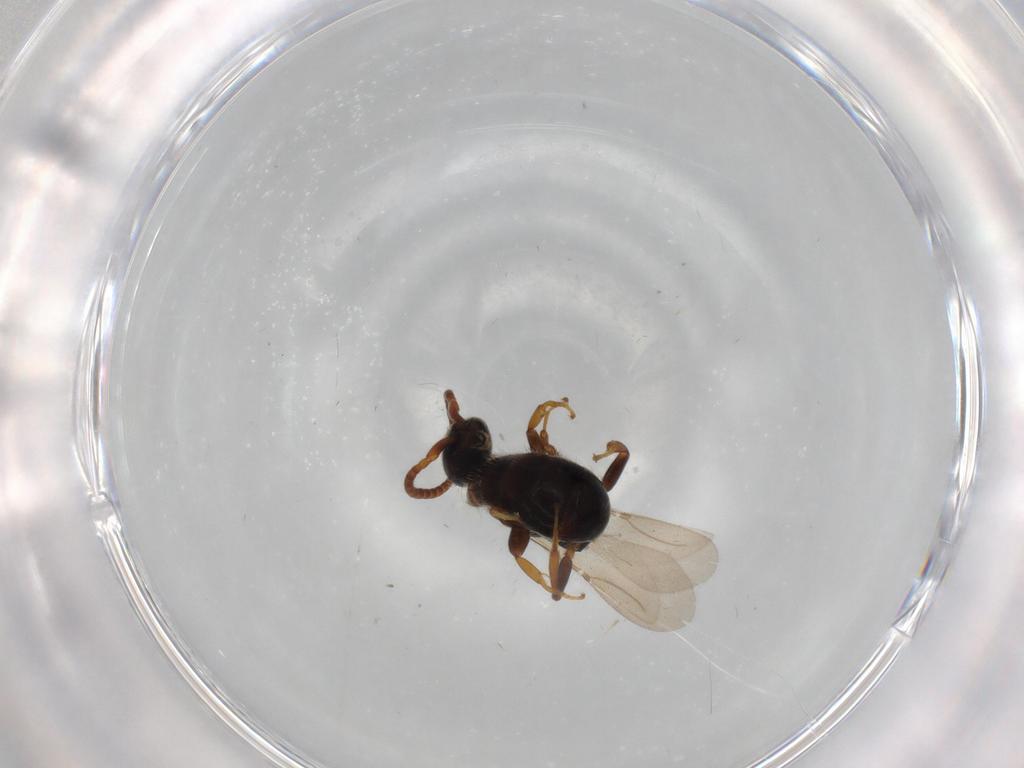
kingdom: Animalia
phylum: Arthropoda
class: Insecta
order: Hymenoptera
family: Bethylidae
